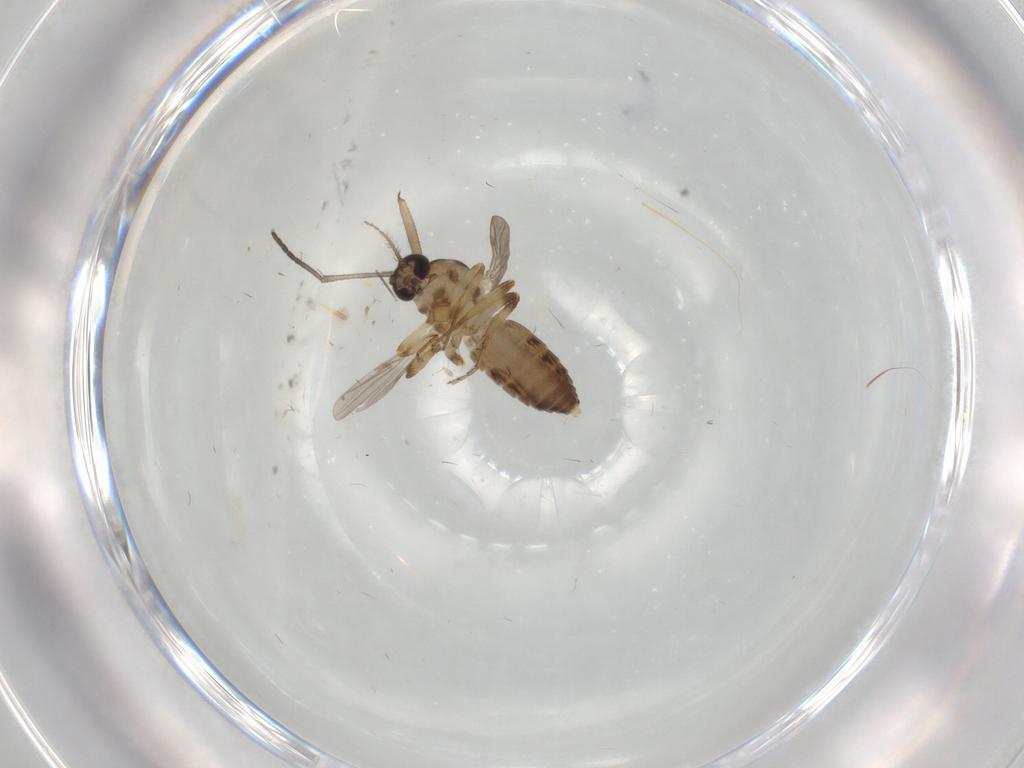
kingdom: Animalia
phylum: Arthropoda
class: Insecta
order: Diptera
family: Sciaridae
